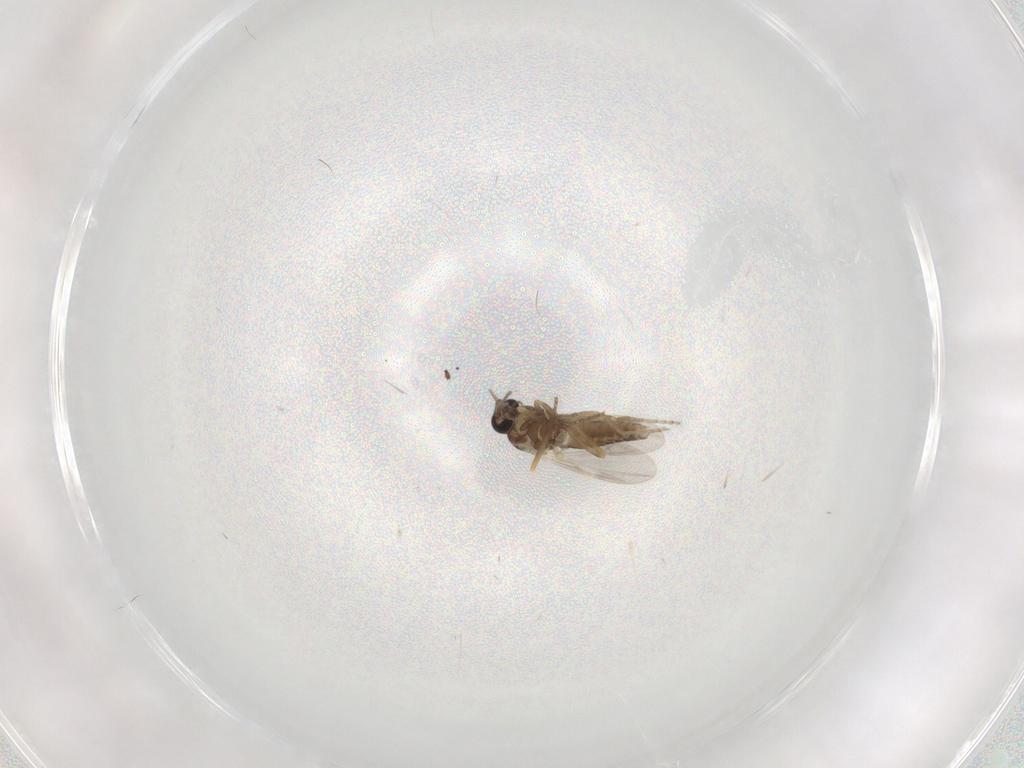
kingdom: Animalia
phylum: Arthropoda
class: Insecta
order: Diptera
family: Ceratopogonidae
